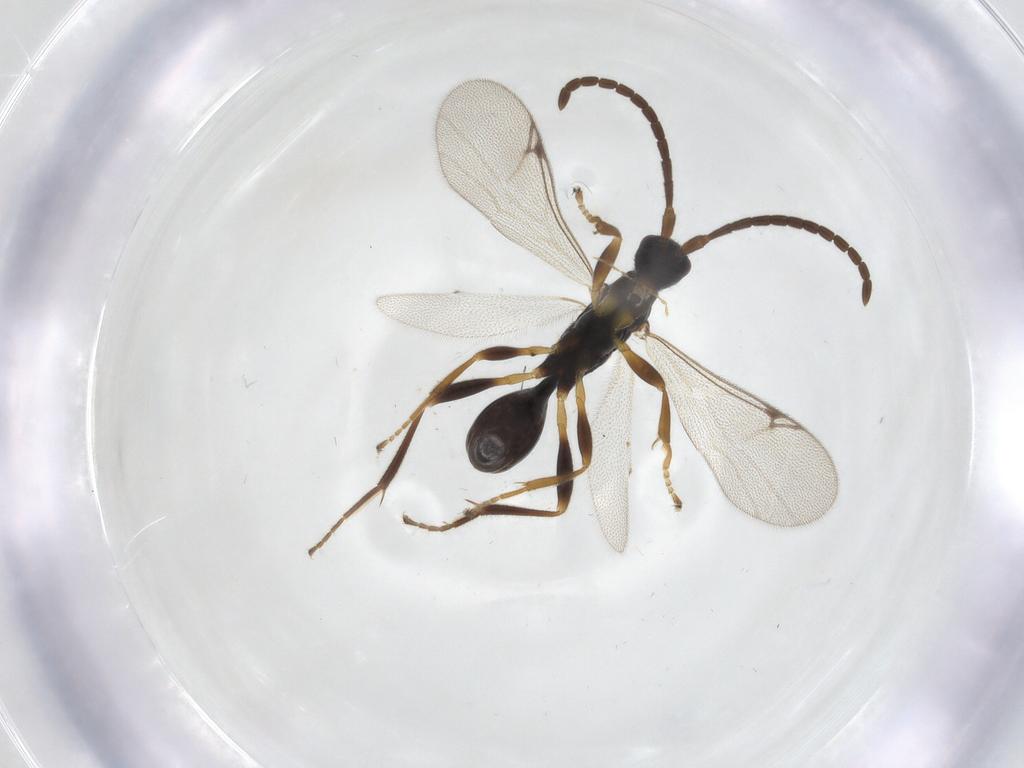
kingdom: Animalia
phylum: Arthropoda
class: Insecta
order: Hymenoptera
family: Proctotrupidae
